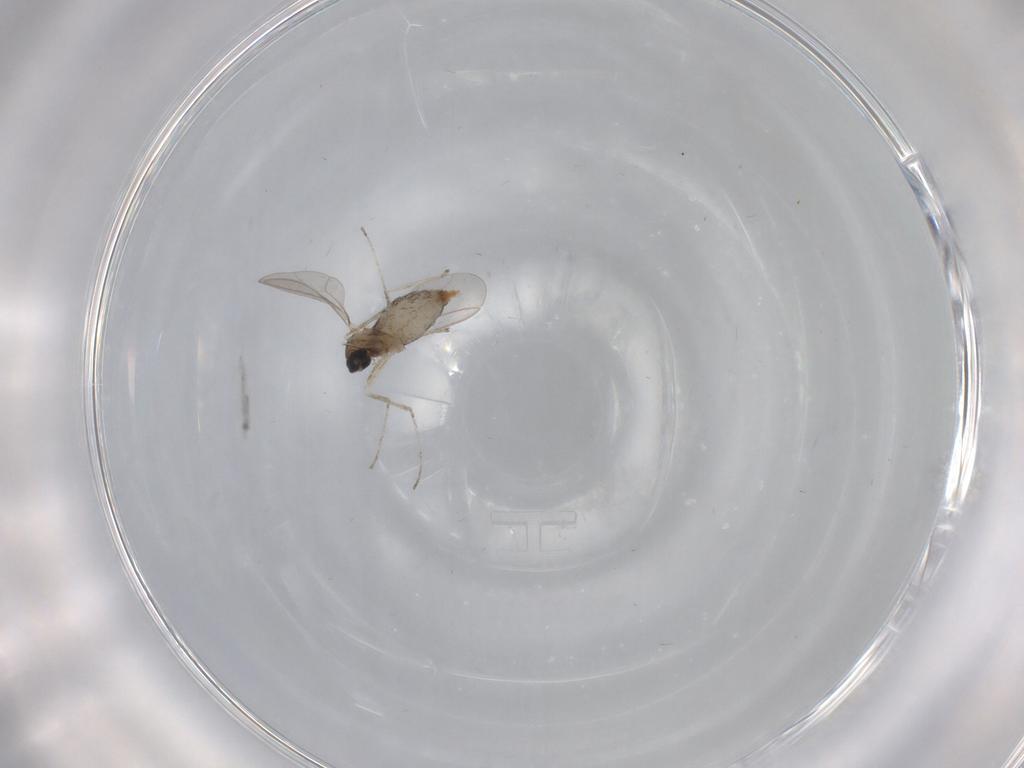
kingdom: Animalia
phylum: Arthropoda
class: Insecta
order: Diptera
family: Cecidomyiidae
